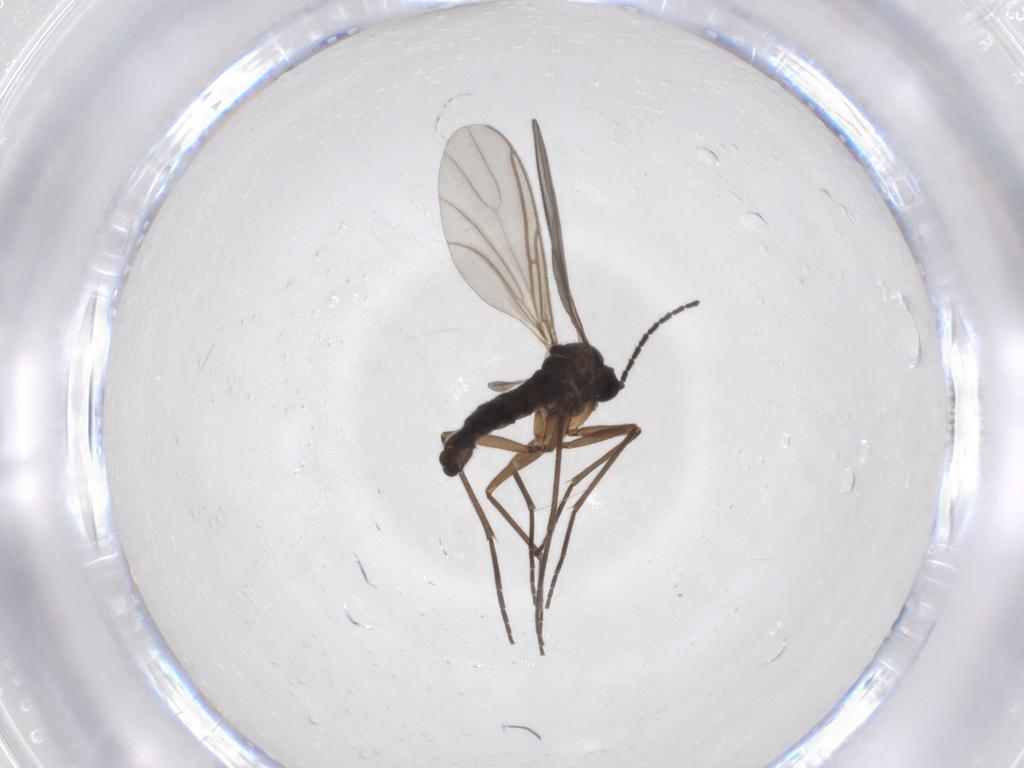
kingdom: Animalia
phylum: Arthropoda
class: Insecta
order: Diptera
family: Sciaridae
